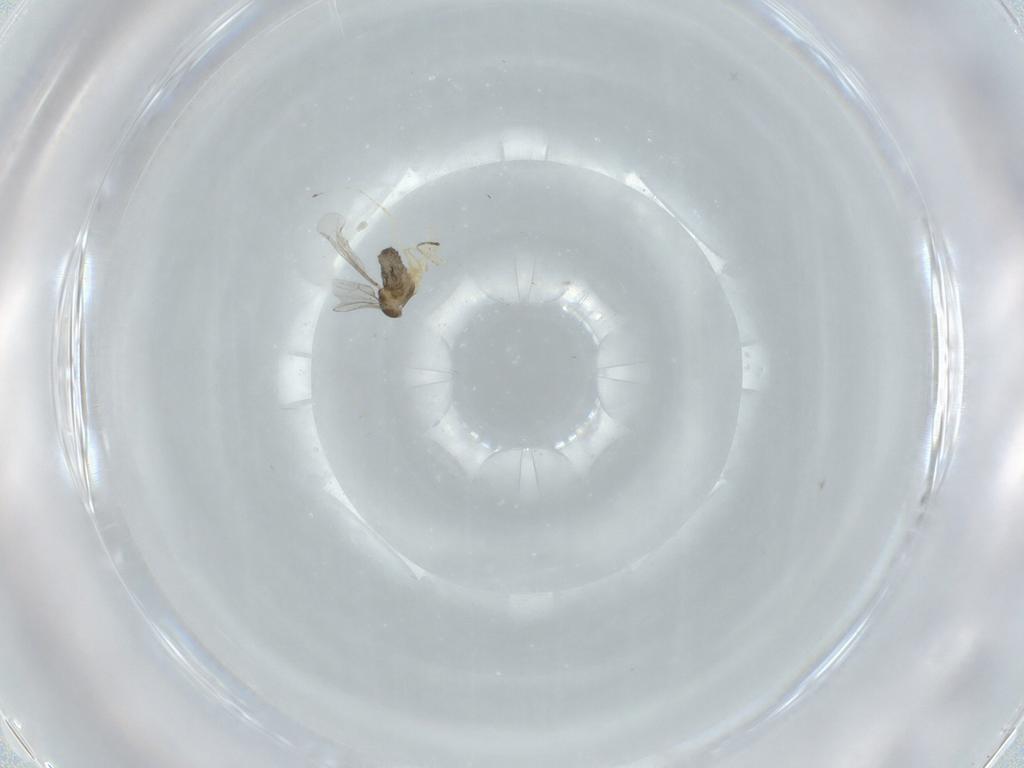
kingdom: Animalia
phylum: Arthropoda
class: Insecta
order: Diptera
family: Cecidomyiidae
